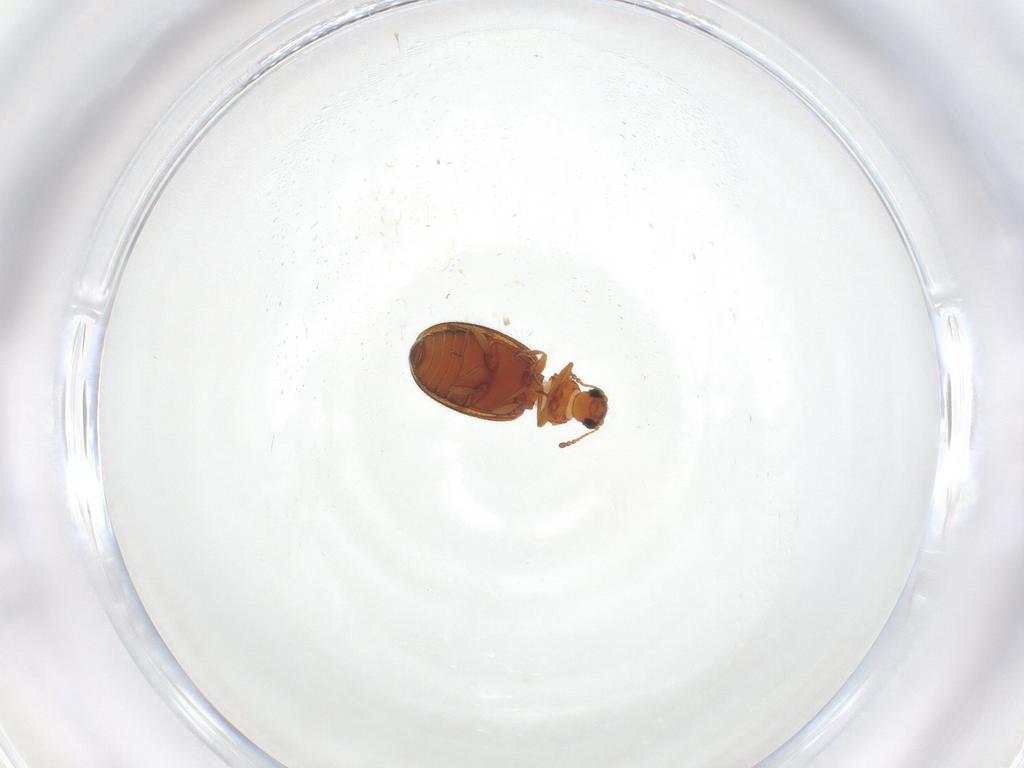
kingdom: Animalia
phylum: Arthropoda
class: Insecta
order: Coleoptera
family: Latridiidae
